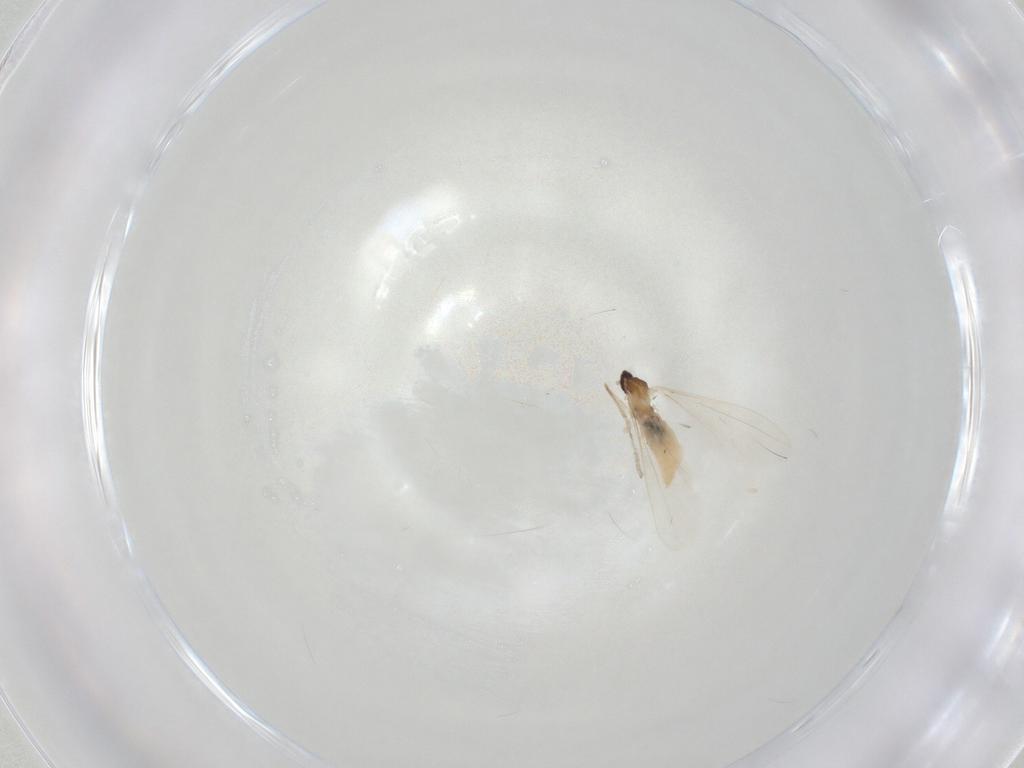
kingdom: Animalia
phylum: Arthropoda
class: Insecta
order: Diptera
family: Cecidomyiidae
